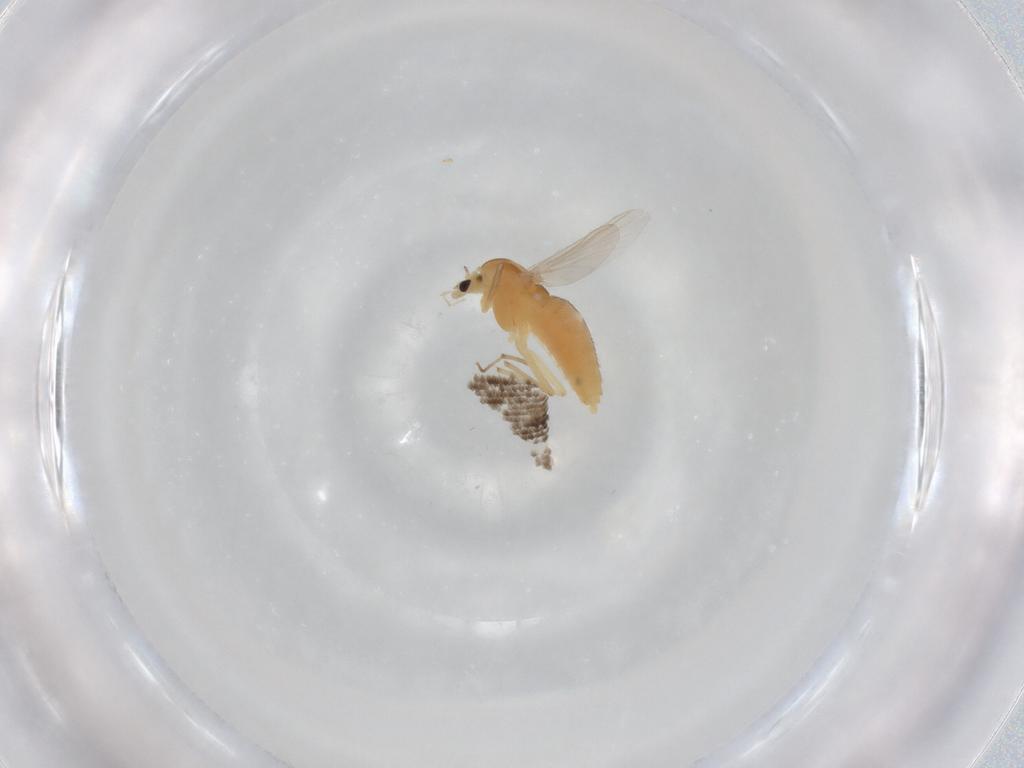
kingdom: Animalia
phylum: Arthropoda
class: Insecta
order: Diptera
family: Chironomidae
